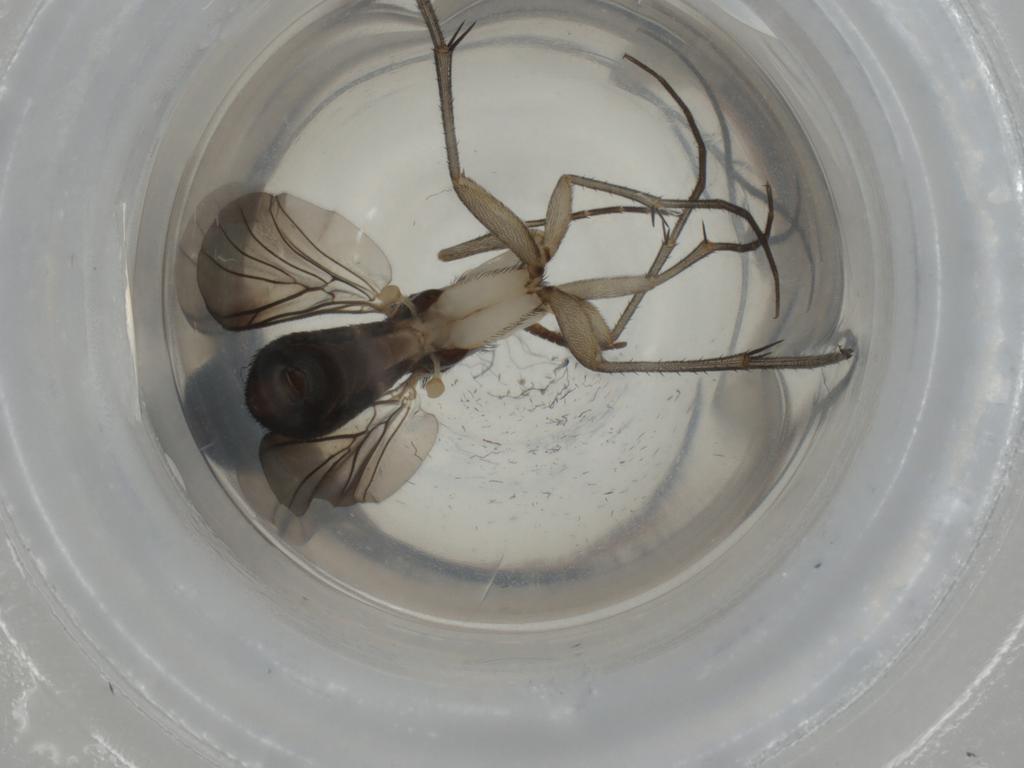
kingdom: Animalia
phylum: Arthropoda
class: Insecta
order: Diptera
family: Keroplatidae
